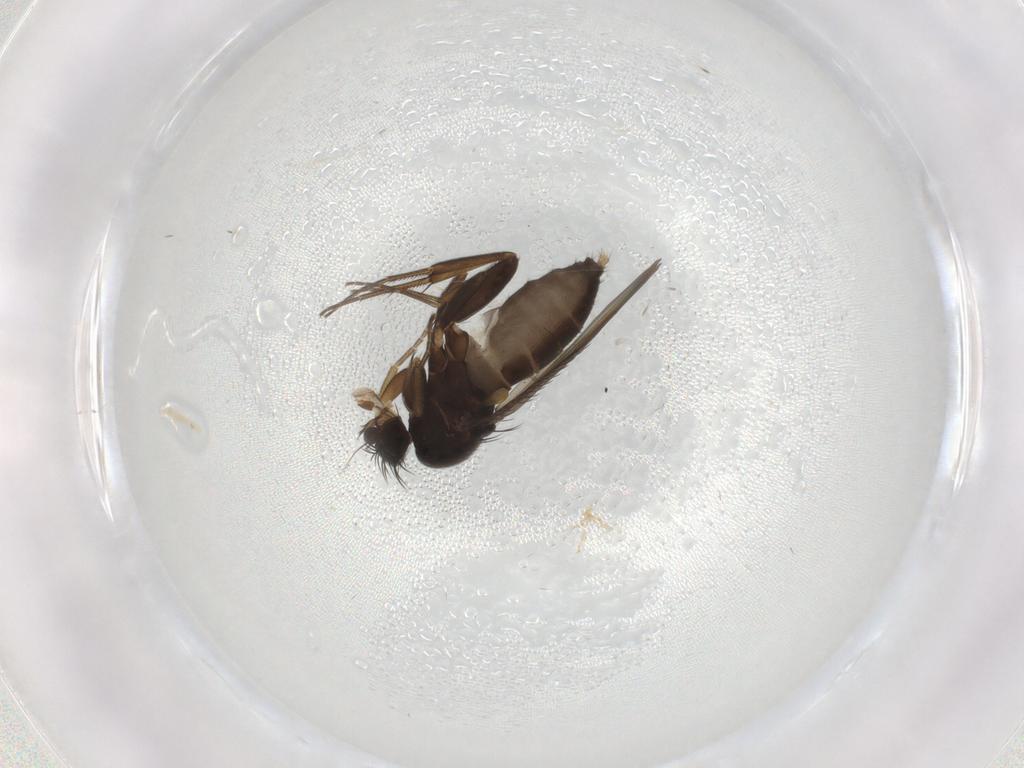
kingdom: Animalia
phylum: Arthropoda
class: Insecta
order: Diptera
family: Phoridae
